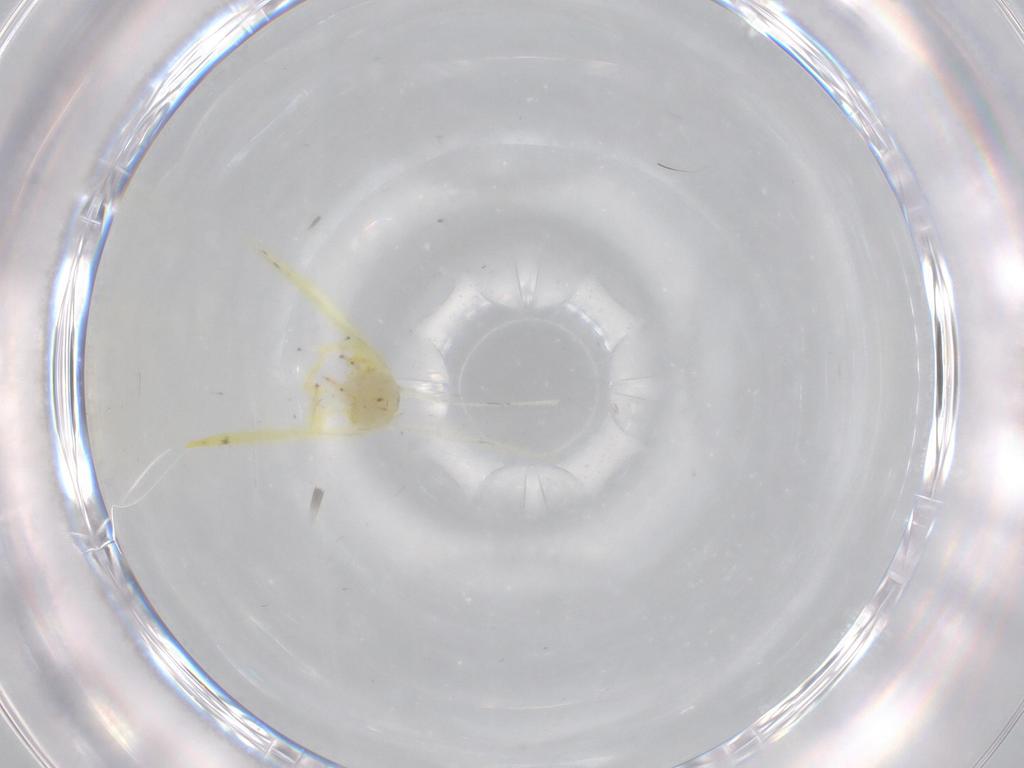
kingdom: Animalia
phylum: Arthropoda
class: Insecta
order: Hemiptera
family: Cicadellidae
